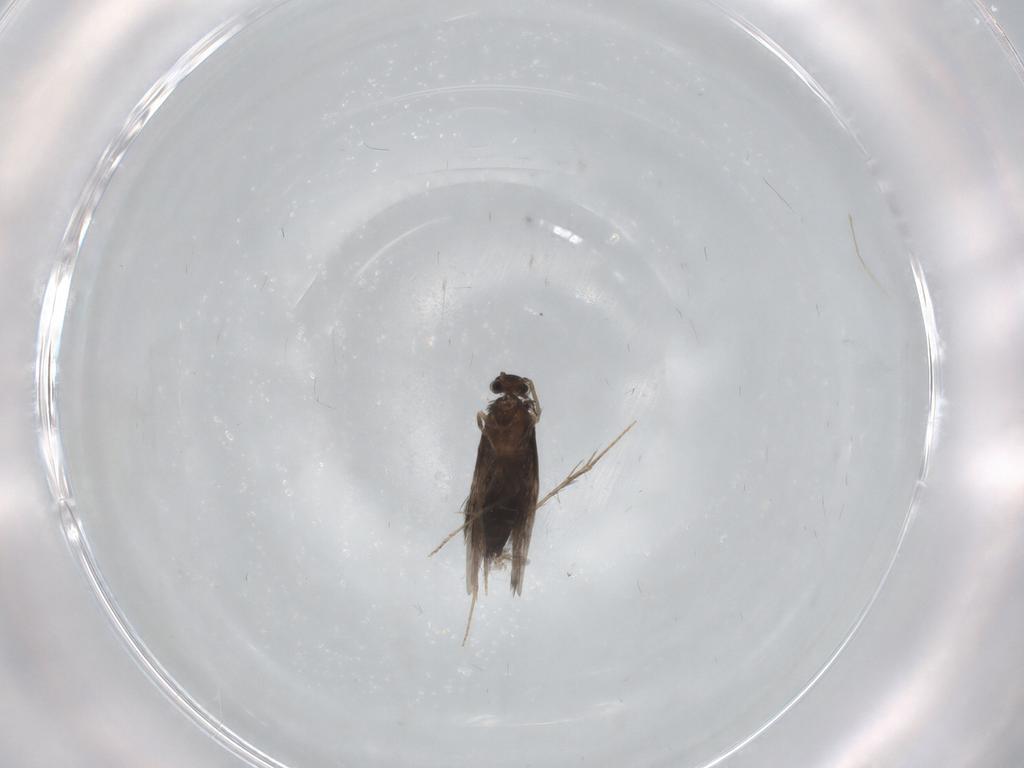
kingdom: Animalia
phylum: Arthropoda
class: Insecta
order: Trichoptera
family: Hydroptilidae
